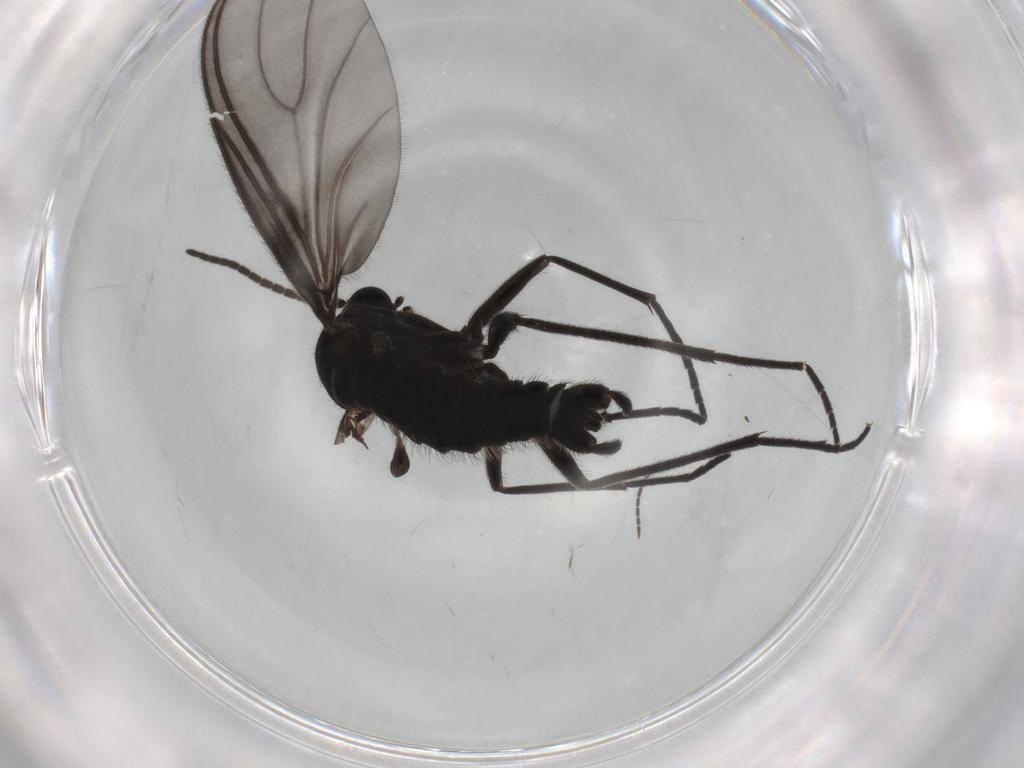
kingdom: Animalia
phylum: Arthropoda
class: Insecta
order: Diptera
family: Sciaridae
